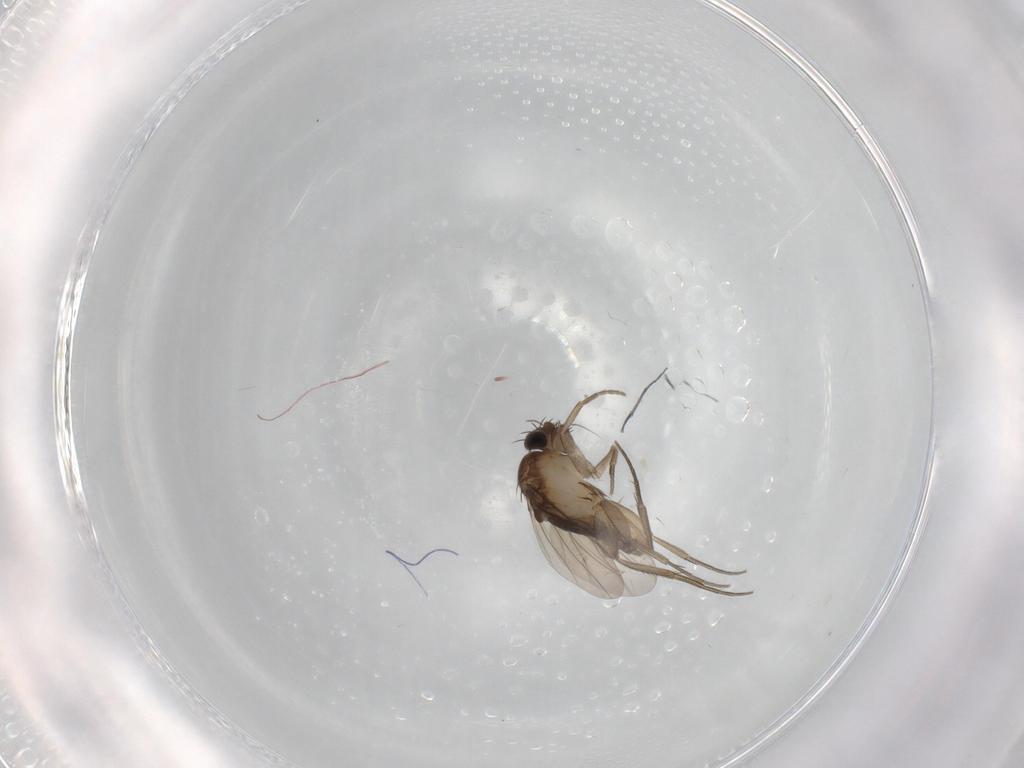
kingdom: Animalia
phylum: Arthropoda
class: Insecta
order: Diptera
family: Phoridae
